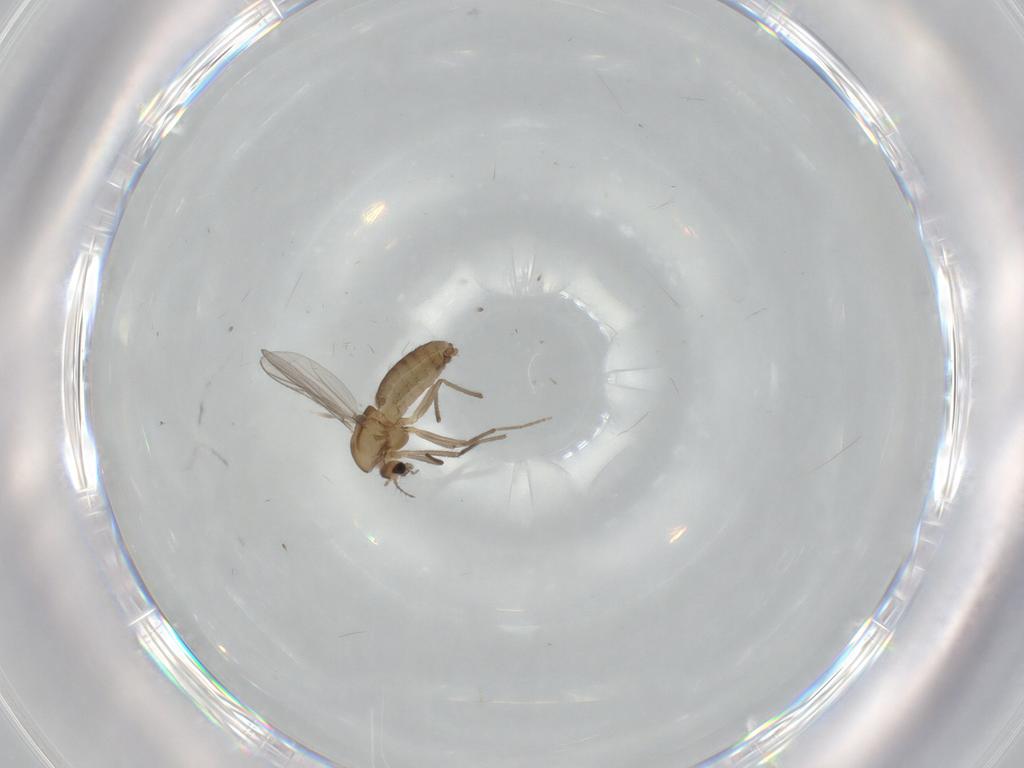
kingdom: Animalia
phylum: Arthropoda
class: Insecta
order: Diptera
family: Chironomidae
